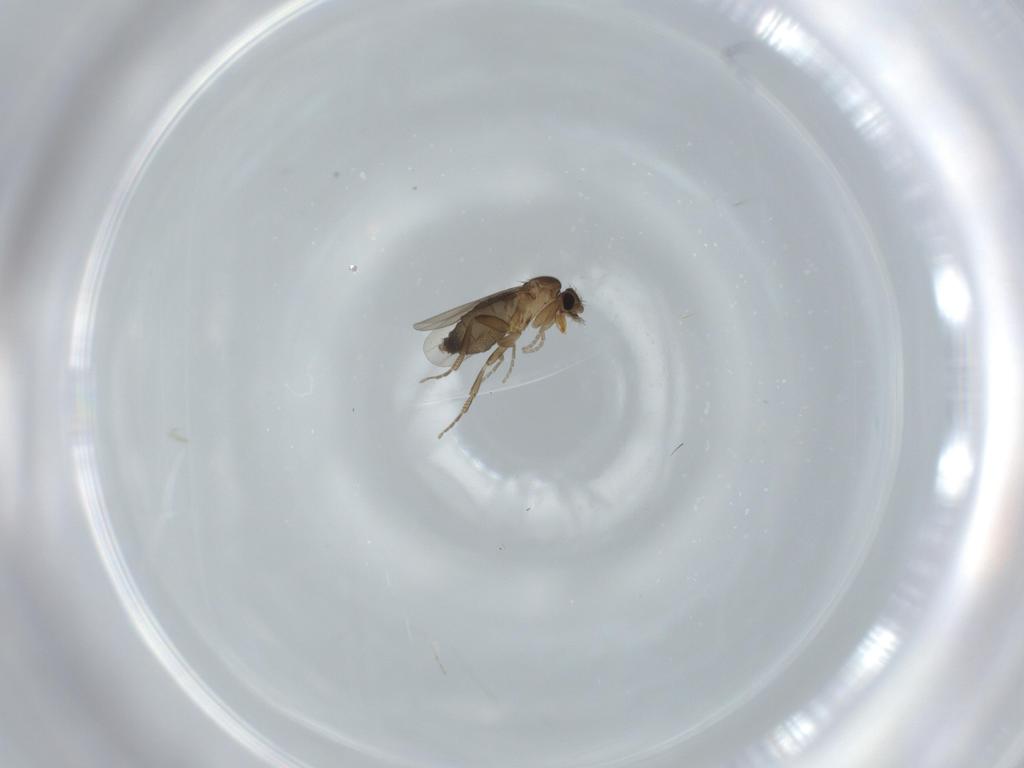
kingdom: Animalia
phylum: Arthropoda
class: Insecta
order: Diptera
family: Phoridae
